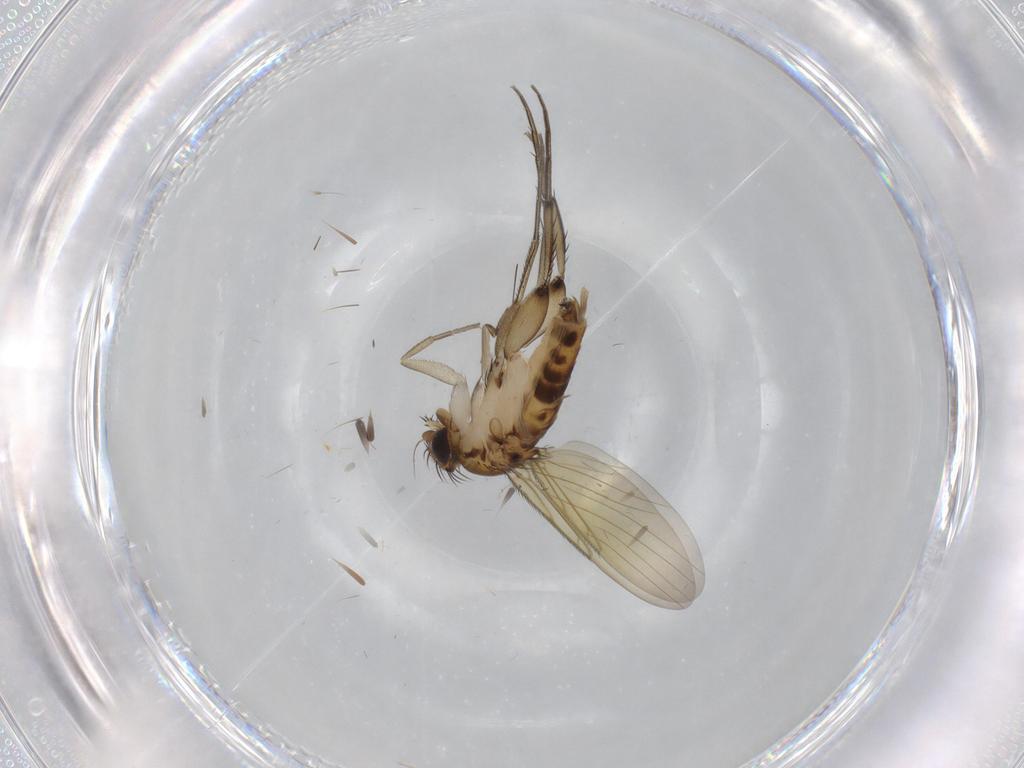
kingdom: Animalia
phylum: Arthropoda
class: Insecta
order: Diptera
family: Phoridae
